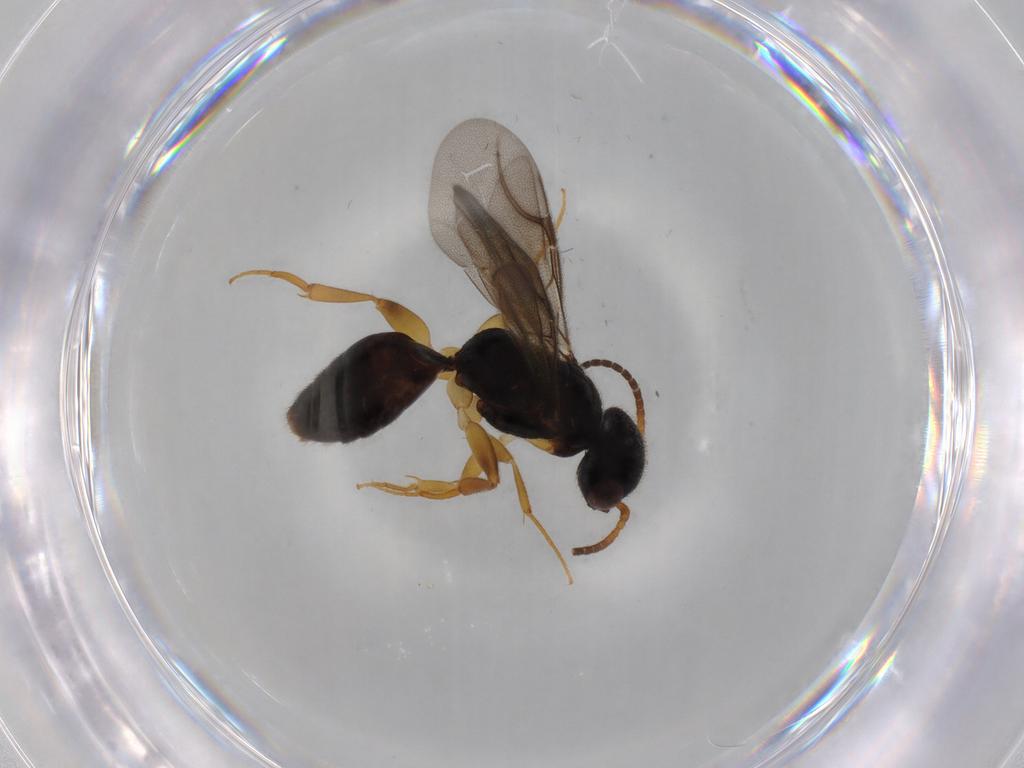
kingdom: Animalia
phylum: Arthropoda
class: Insecta
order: Hymenoptera
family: Bethylidae
